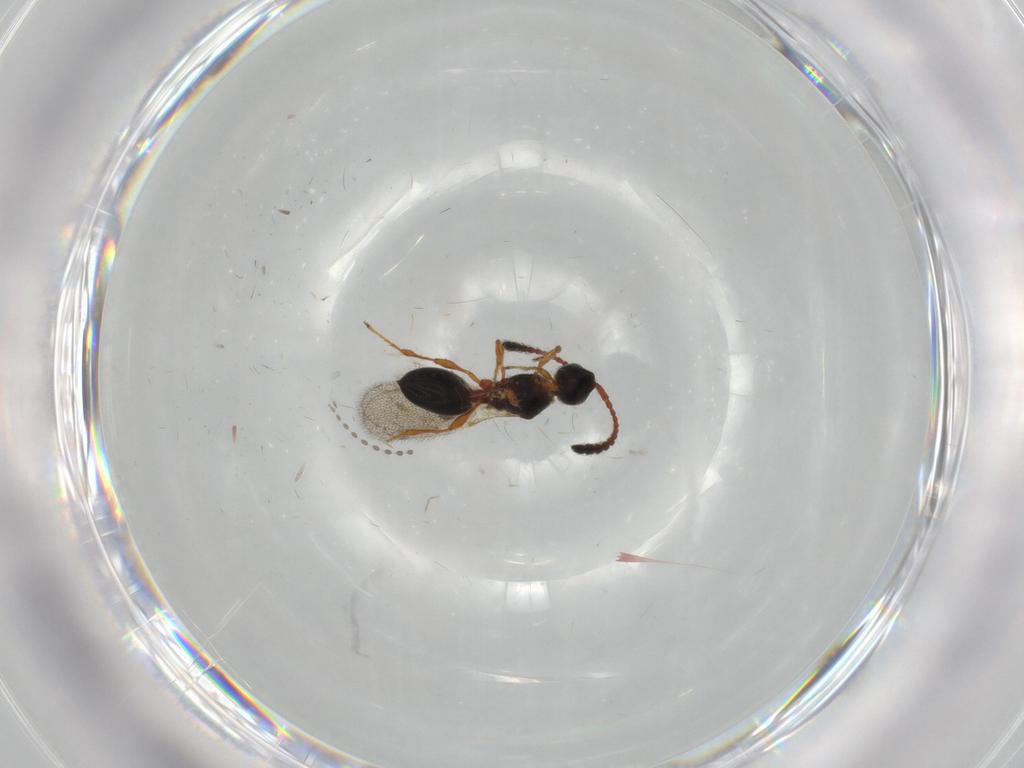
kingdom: Animalia
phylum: Arthropoda
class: Insecta
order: Hymenoptera
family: Diapriidae
